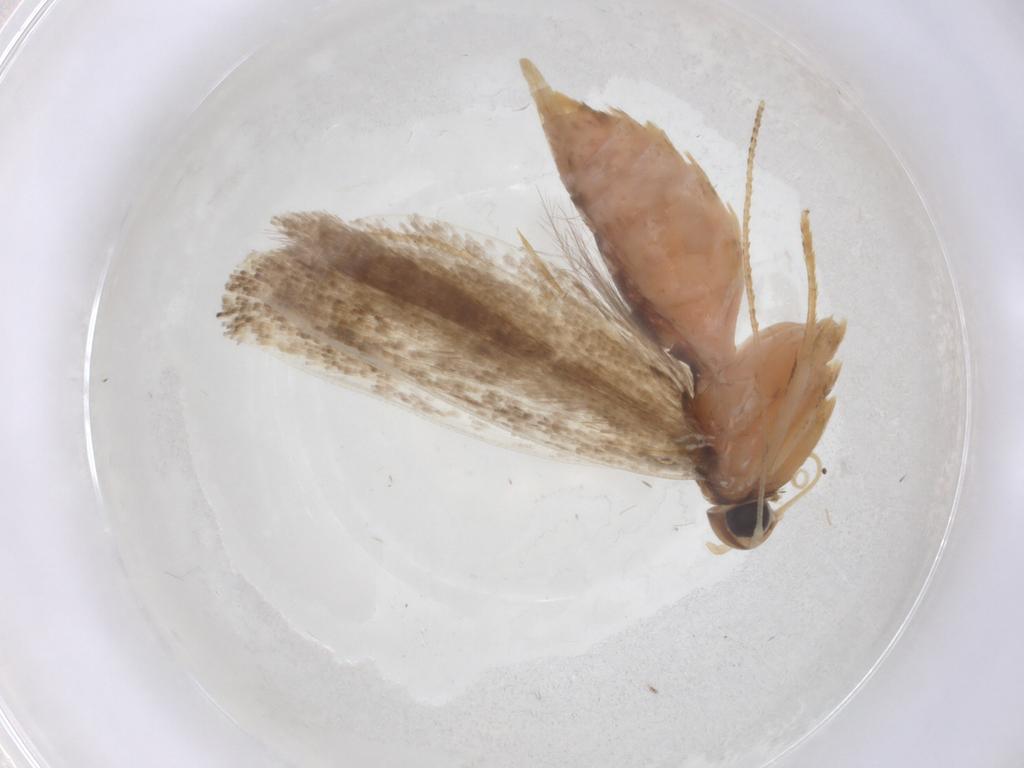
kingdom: Animalia
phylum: Arthropoda
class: Insecta
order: Lepidoptera
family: Gelechiidae
